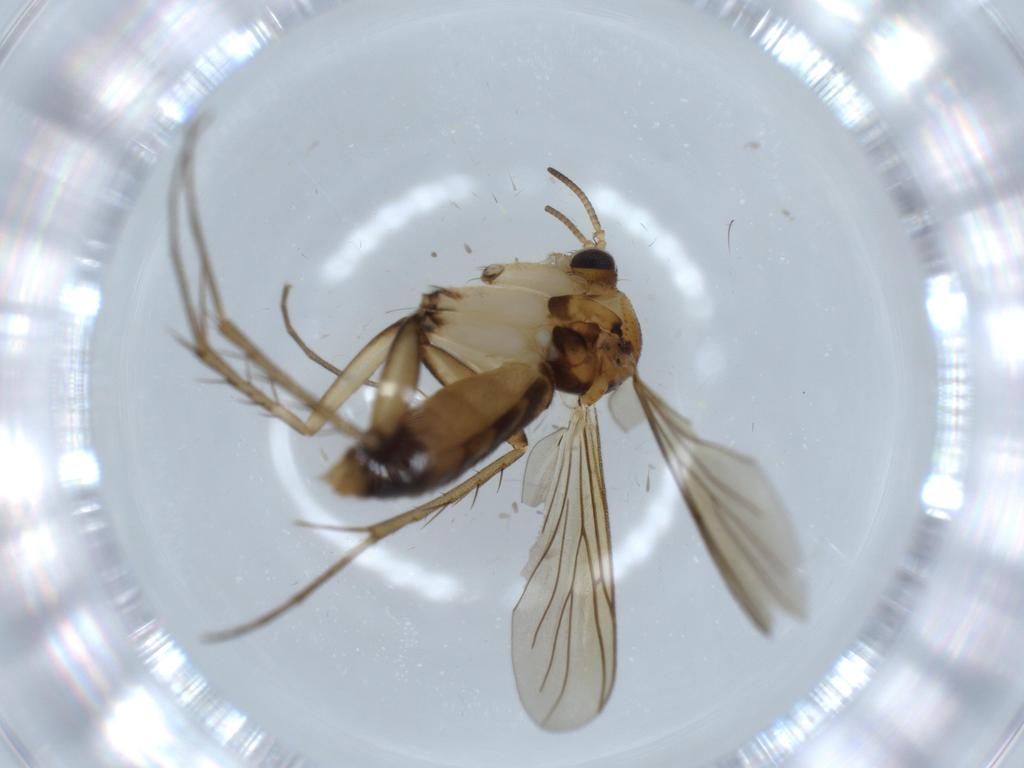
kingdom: Animalia
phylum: Arthropoda
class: Insecta
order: Diptera
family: Mycetophilidae
